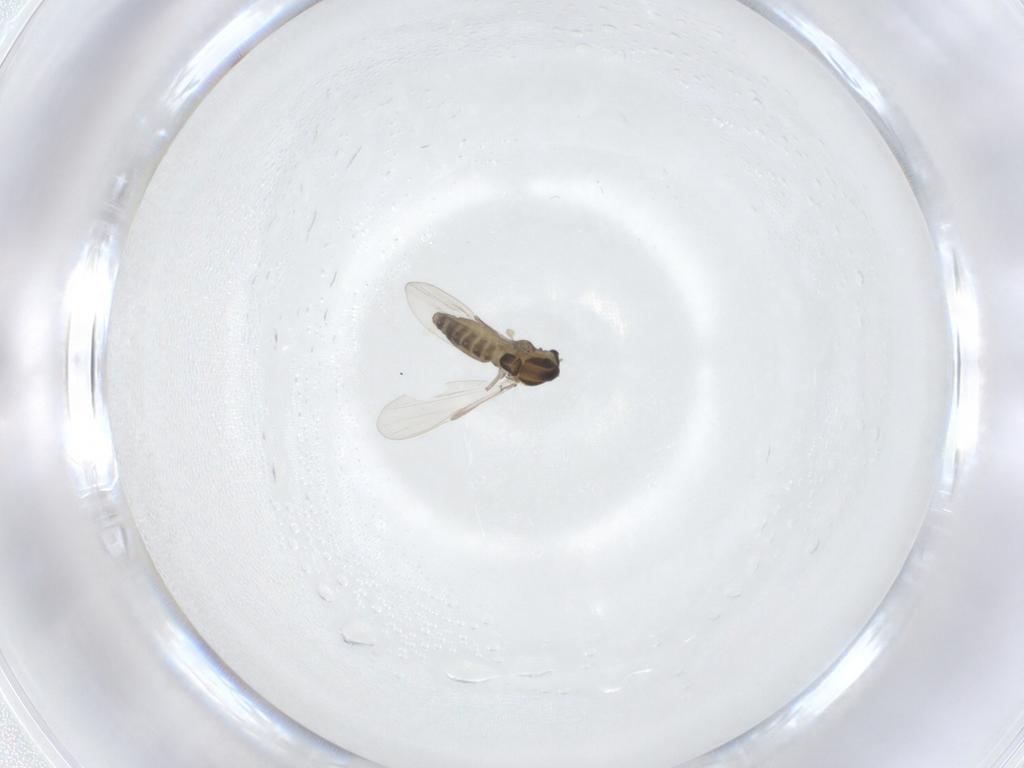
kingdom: Animalia
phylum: Arthropoda
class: Insecta
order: Diptera
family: Chironomidae
